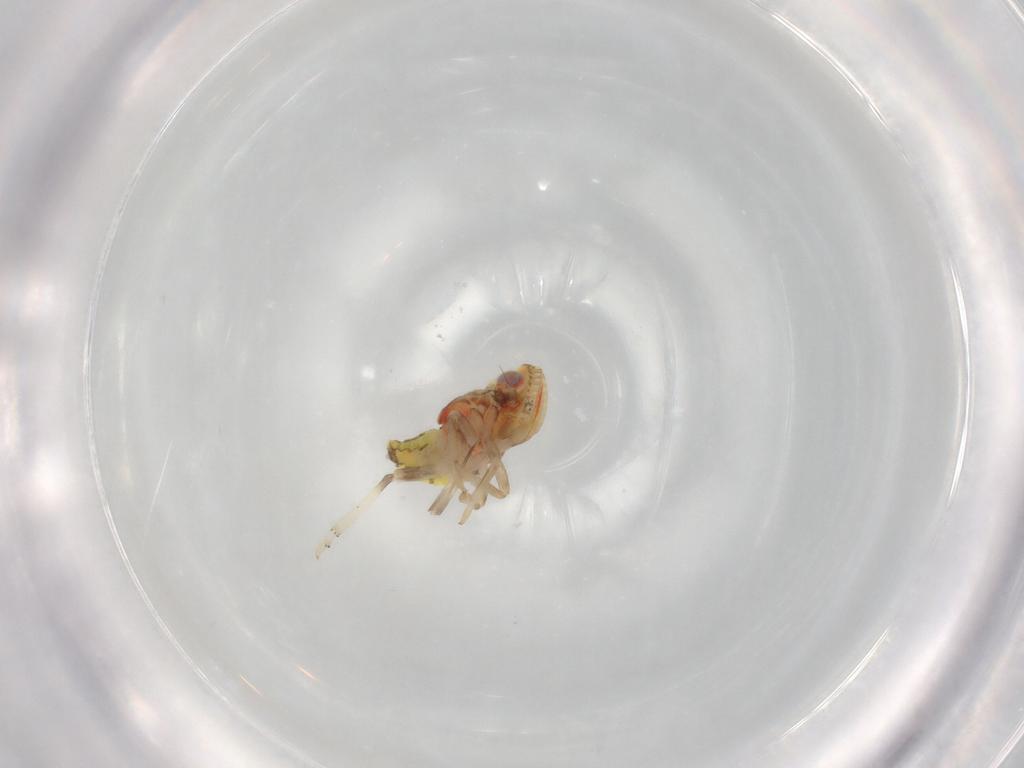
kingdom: Animalia
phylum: Arthropoda
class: Insecta
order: Hemiptera
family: Tropiduchidae
